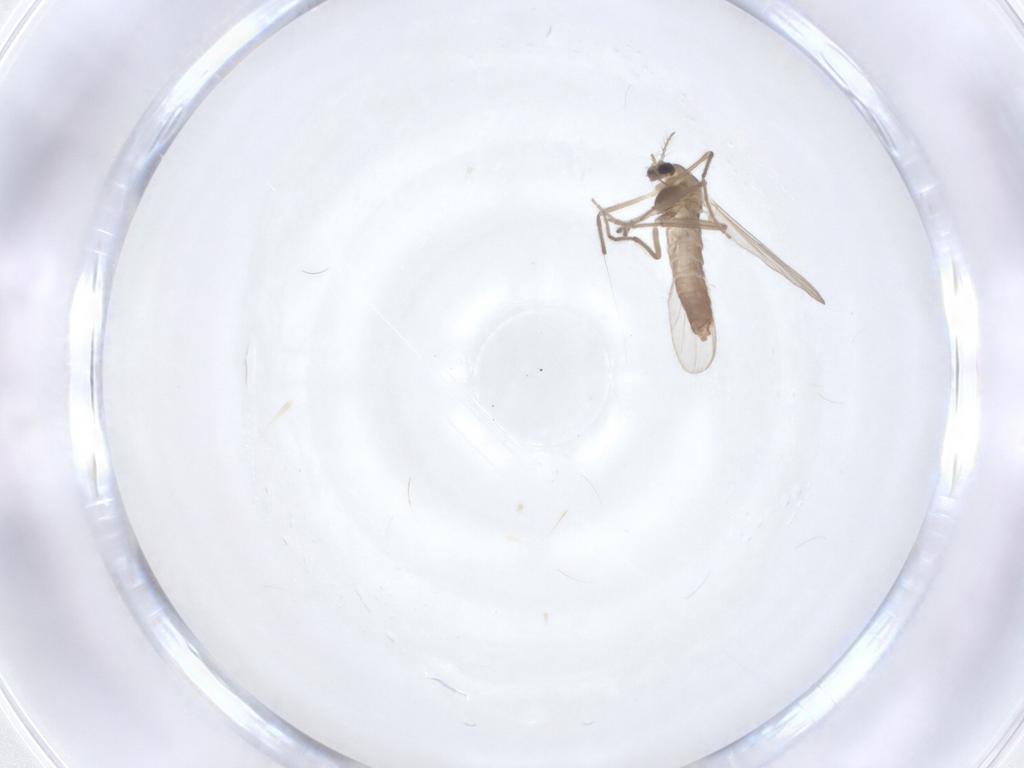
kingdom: Animalia
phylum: Arthropoda
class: Insecta
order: Diptera
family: Chironomidae
